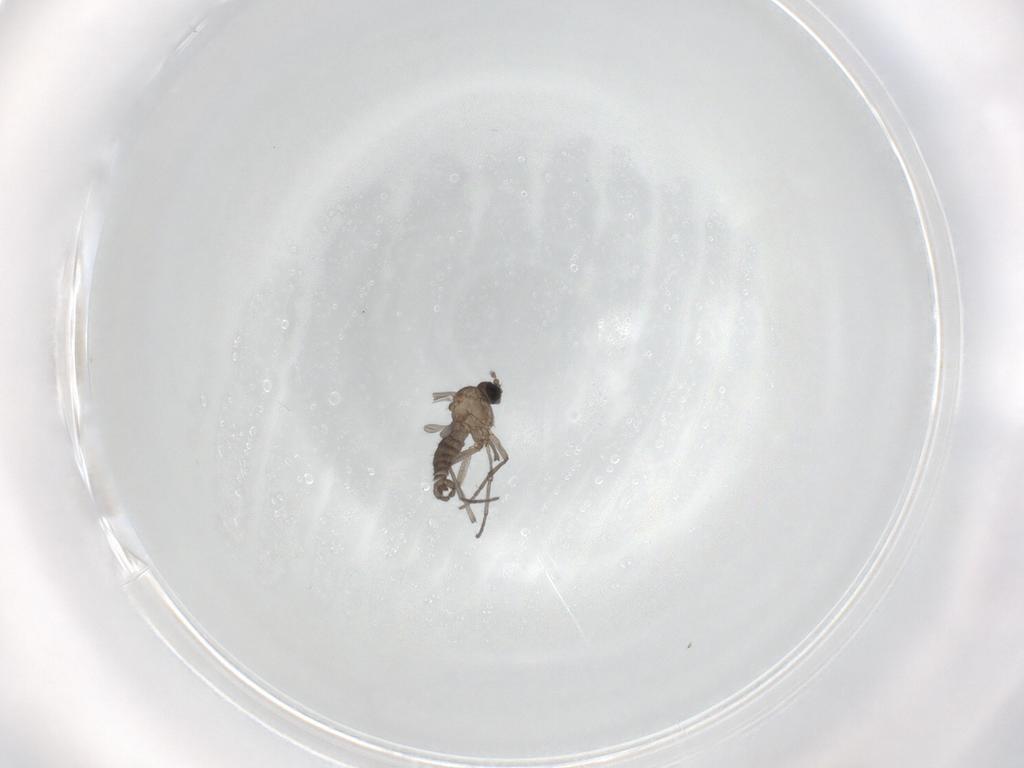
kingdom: Animalia
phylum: Arthropoda
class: Insecta
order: Diptera
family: Sciaridae
